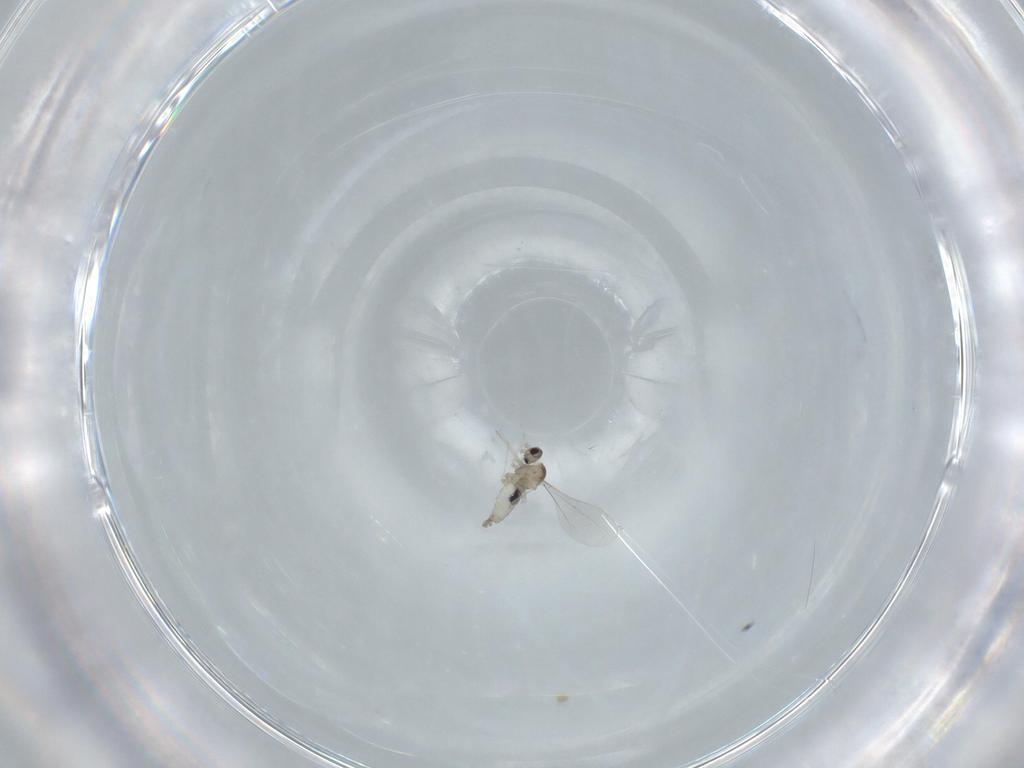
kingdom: Animalia
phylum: Arthropoda
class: Insecta
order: Diptera
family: Cecidomyiidae
